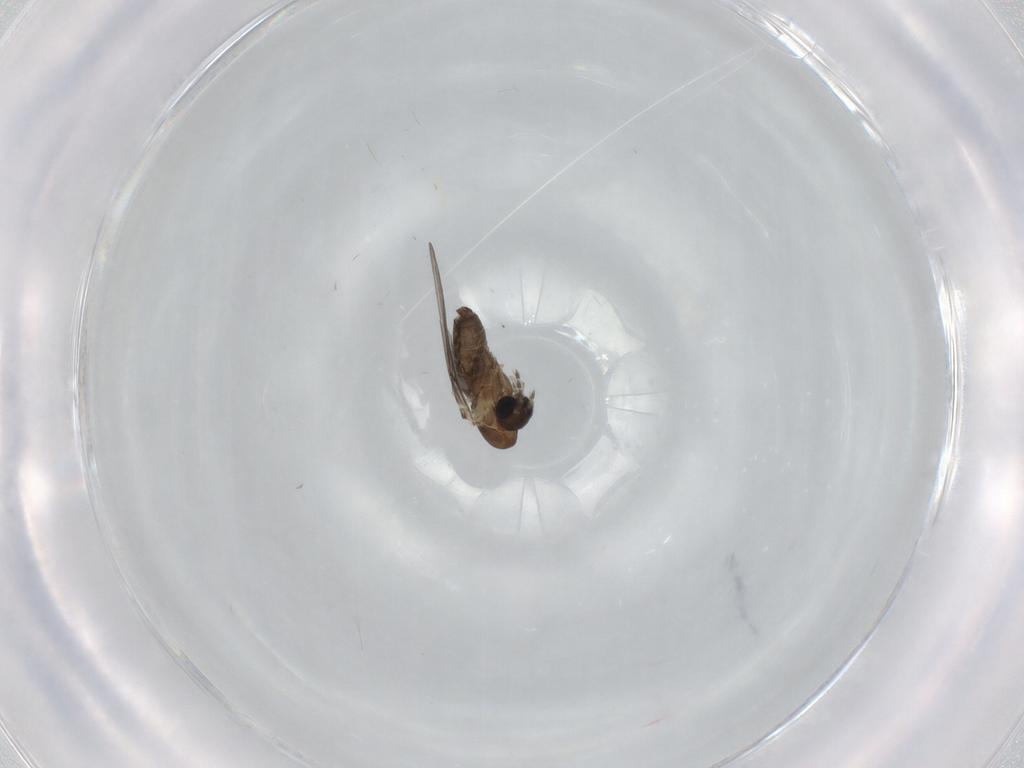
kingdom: Animalia
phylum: Arthropoda
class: Insecta
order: Diptera
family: Psychodidae
